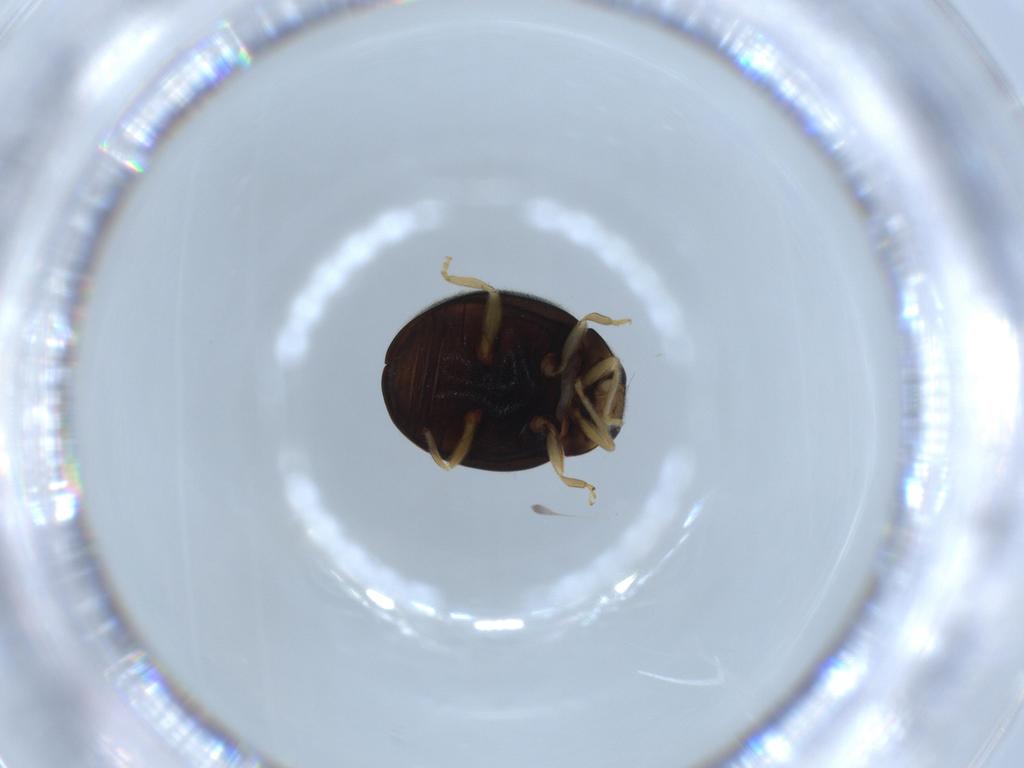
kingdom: Animalia
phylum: Arthropoda
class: Insecta
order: Coleoptera
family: Coccinellidae
